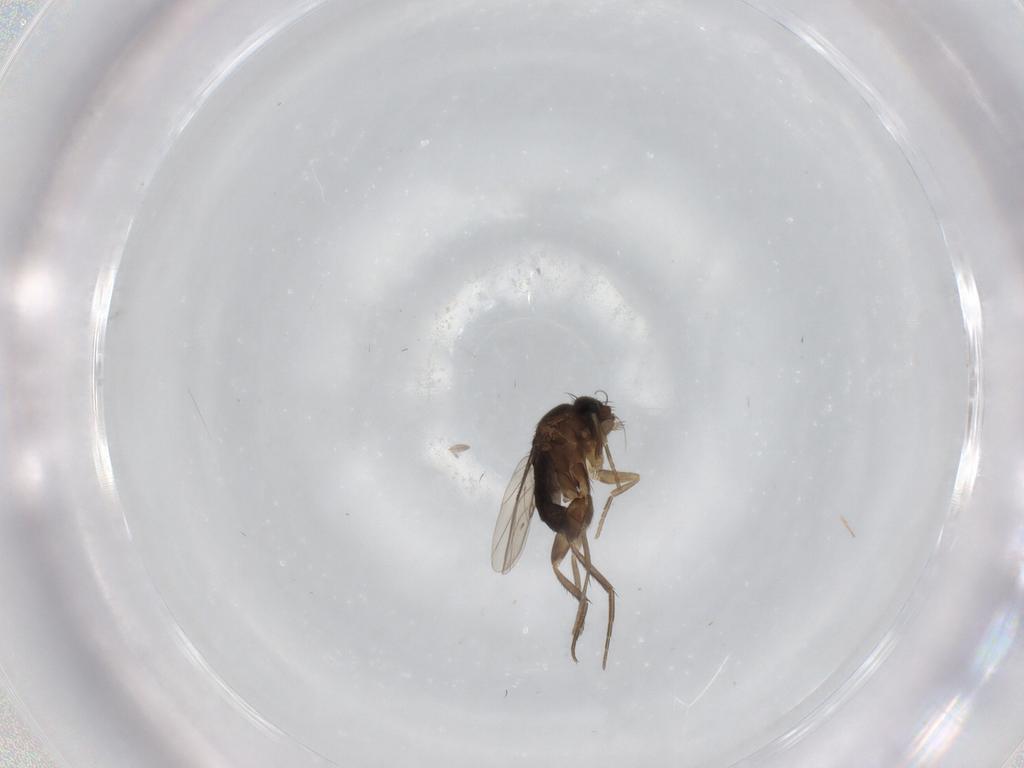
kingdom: Animalia
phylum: Arthropoda
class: Insecta
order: Diptera
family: Phoridae
